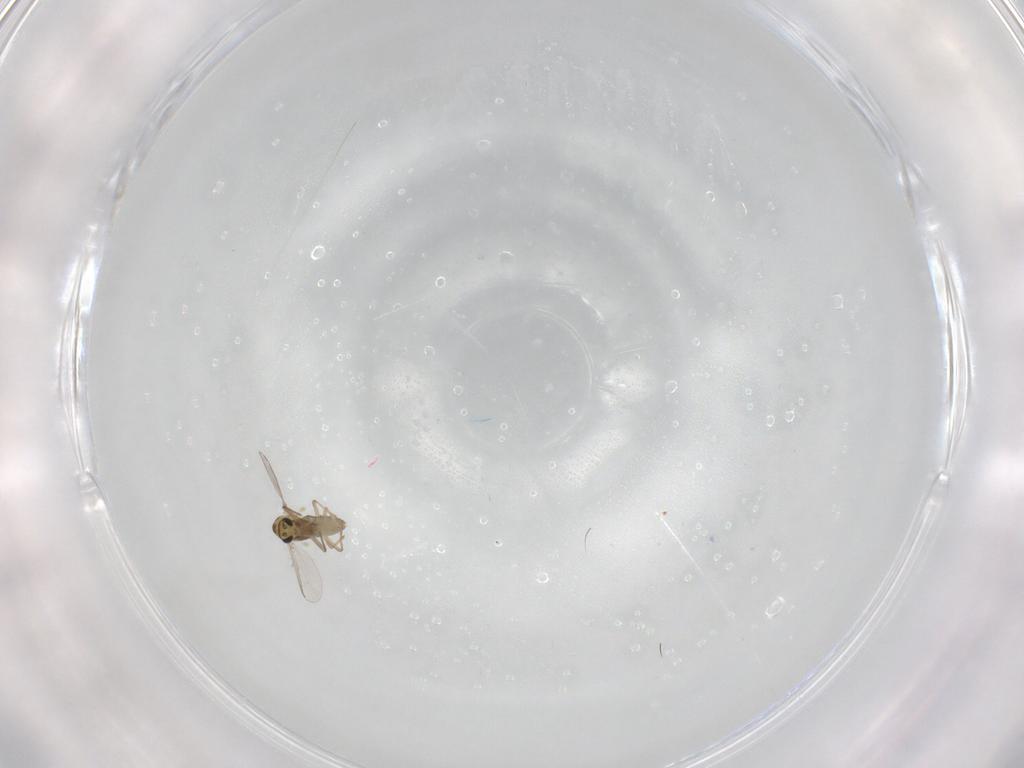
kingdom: Animalia
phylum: Arthropoda
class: Insecta
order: Diptera
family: Chironomidae
